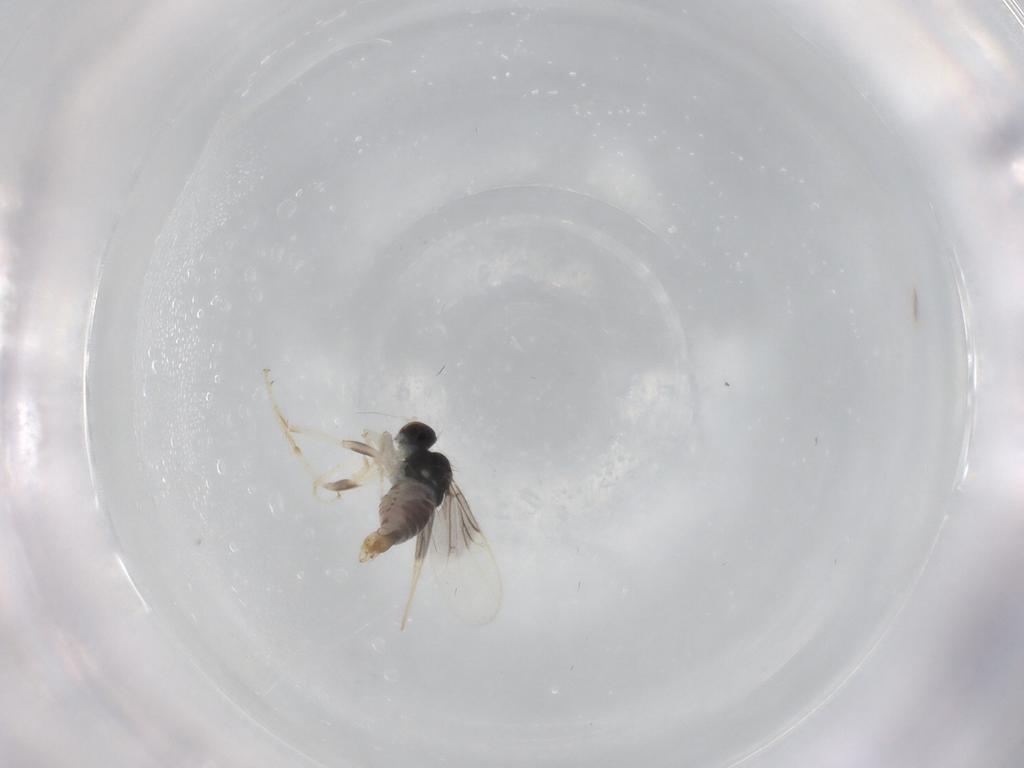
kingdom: Animalia
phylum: Arthropoda
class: Insecta
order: Diptera
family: Hybotidae
